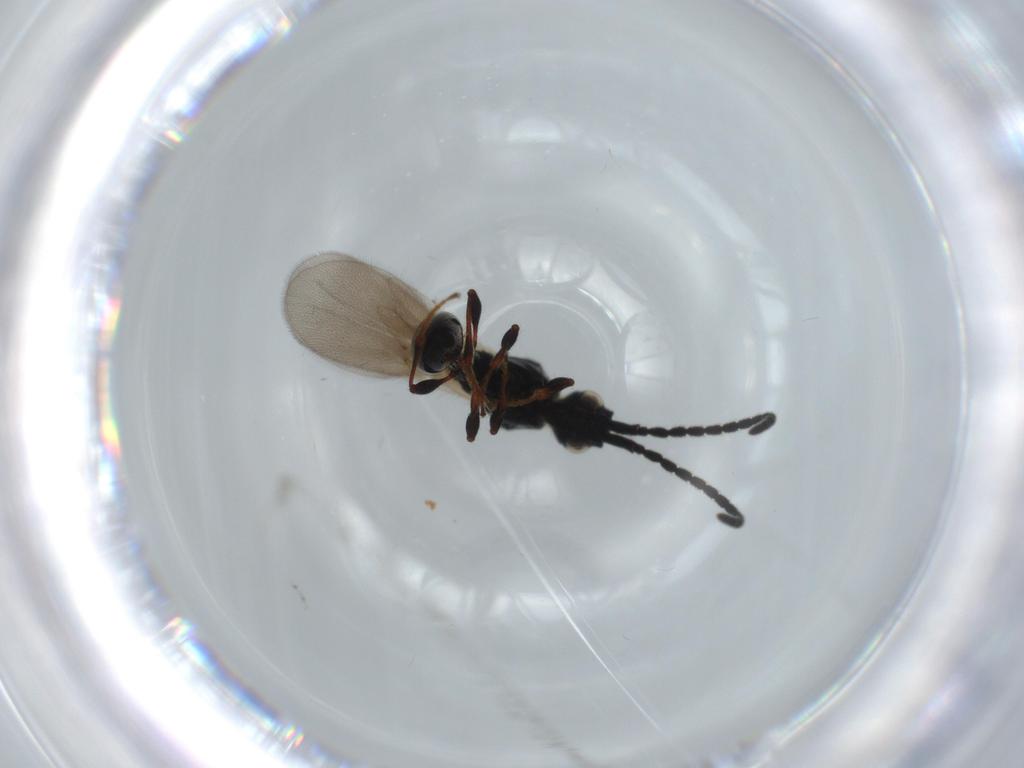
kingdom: Animalia
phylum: Arthropoda
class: Insecta
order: Hymenoptera
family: Diapriidae
